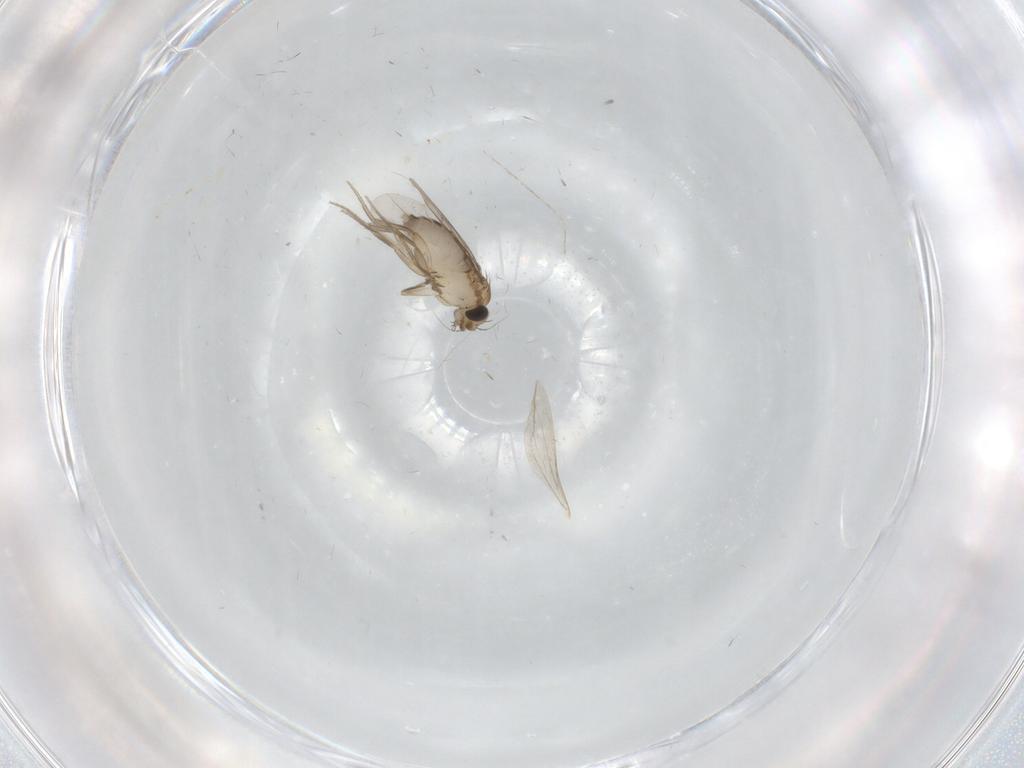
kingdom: Animalia
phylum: Arthropoda
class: Insecta
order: Diptera
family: Phoridae
